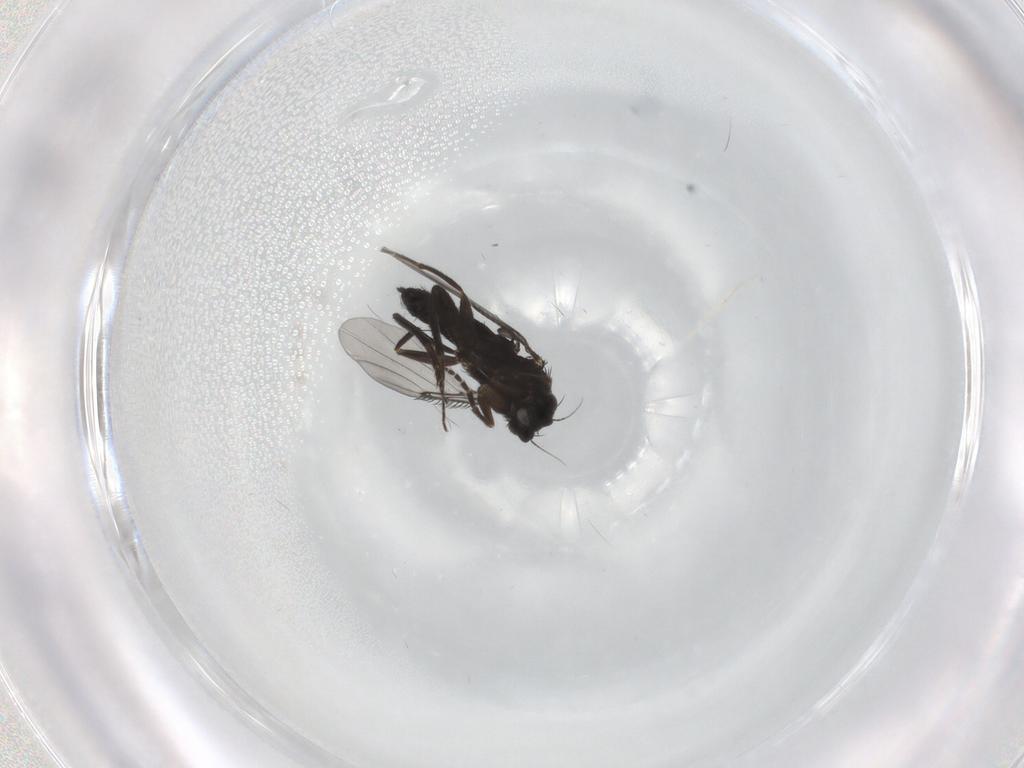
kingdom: Animalia
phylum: Arthropoda
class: Insecta
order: Diptera
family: Phoridae
